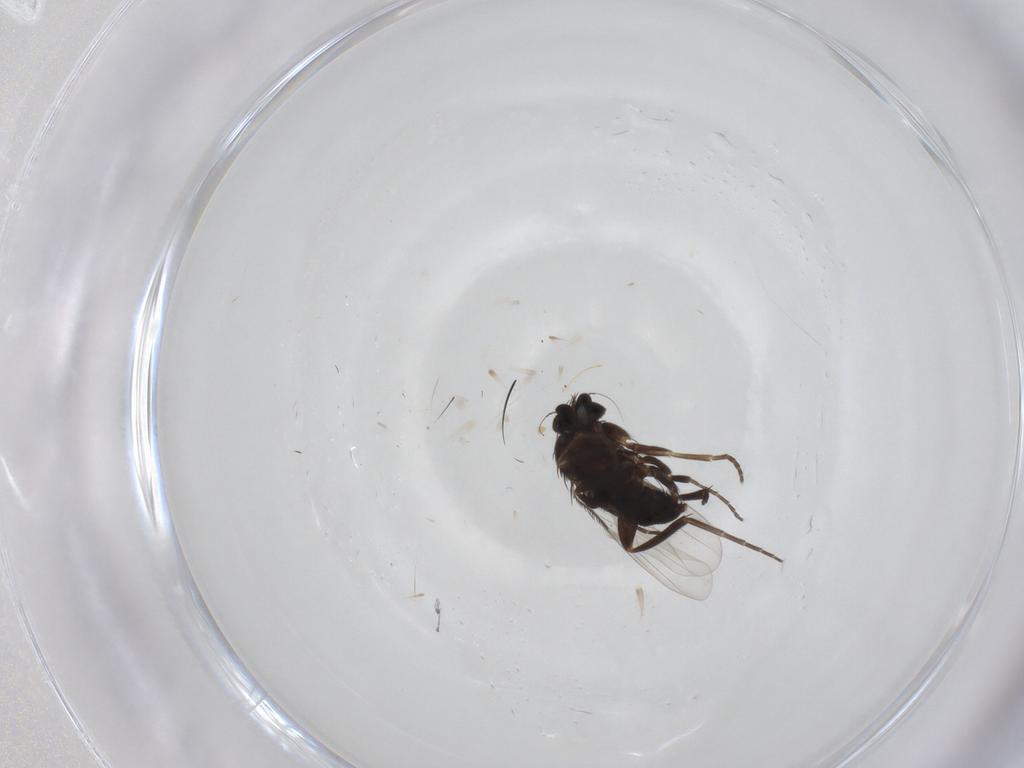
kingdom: Animalia
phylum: Arthropoda
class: Insecta
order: Diptera
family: Phoridae
